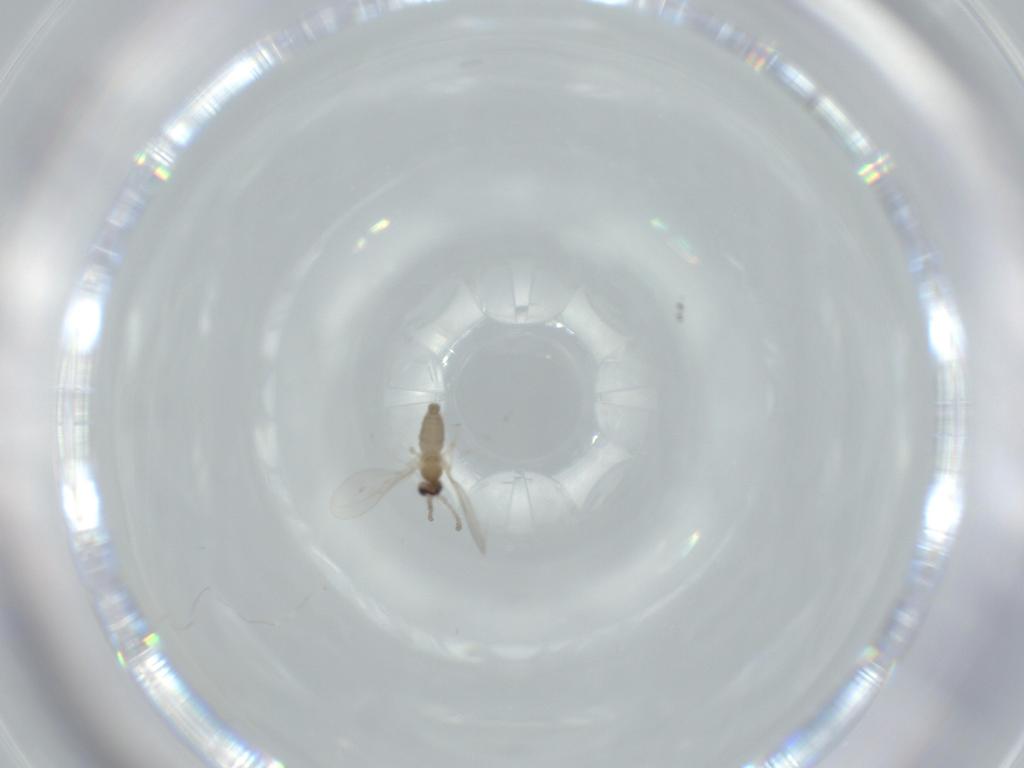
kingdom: Animalia
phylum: Arthropoda
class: Insecta
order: Diptera
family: Cecidomyiidae
